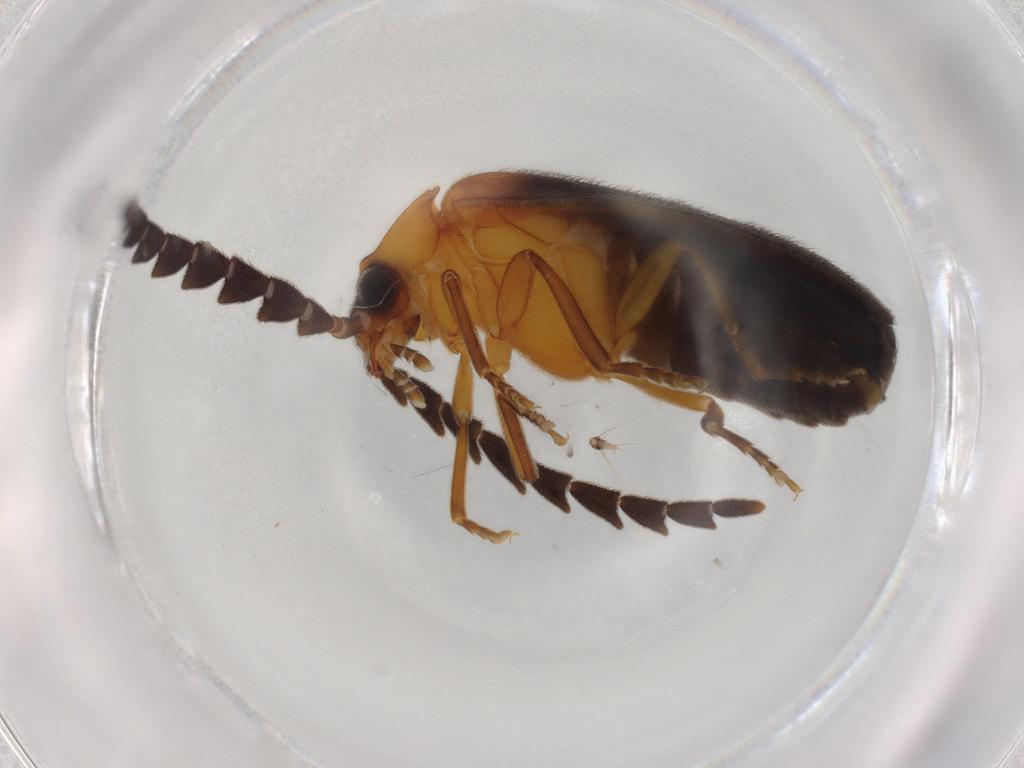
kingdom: Animalia
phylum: Arthropoda
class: Insecta
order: Coleoptera
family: Lampyridae
